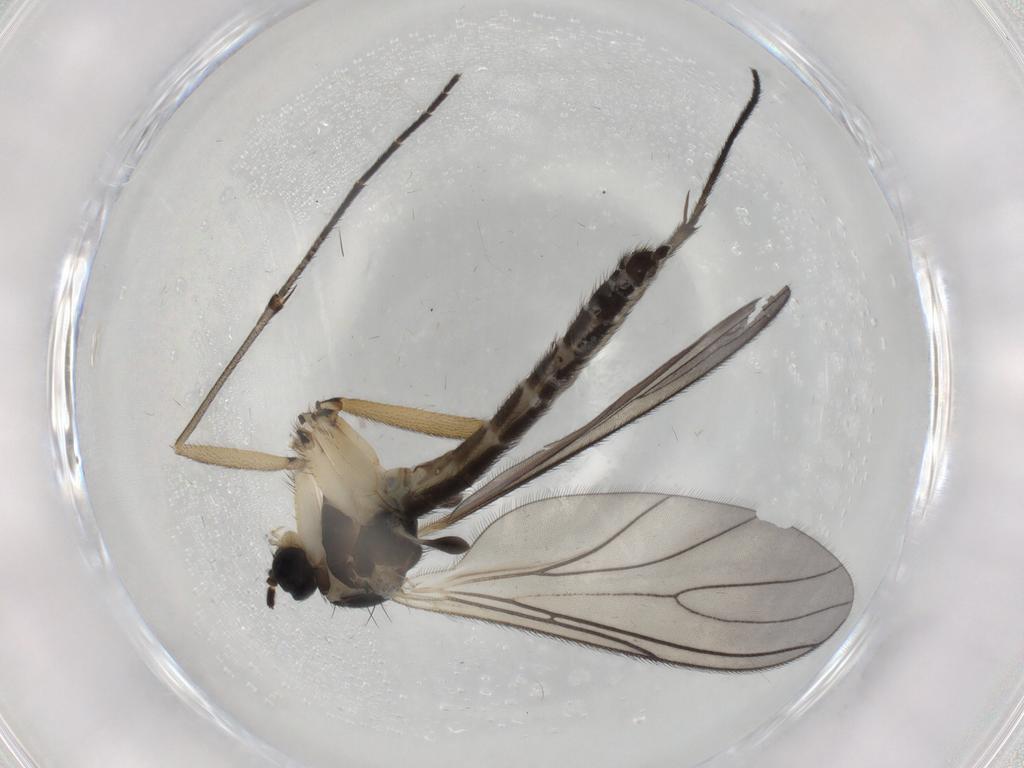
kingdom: Animalia
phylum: Arthropoda
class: Insecta
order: Diptera
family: Sciaridae
